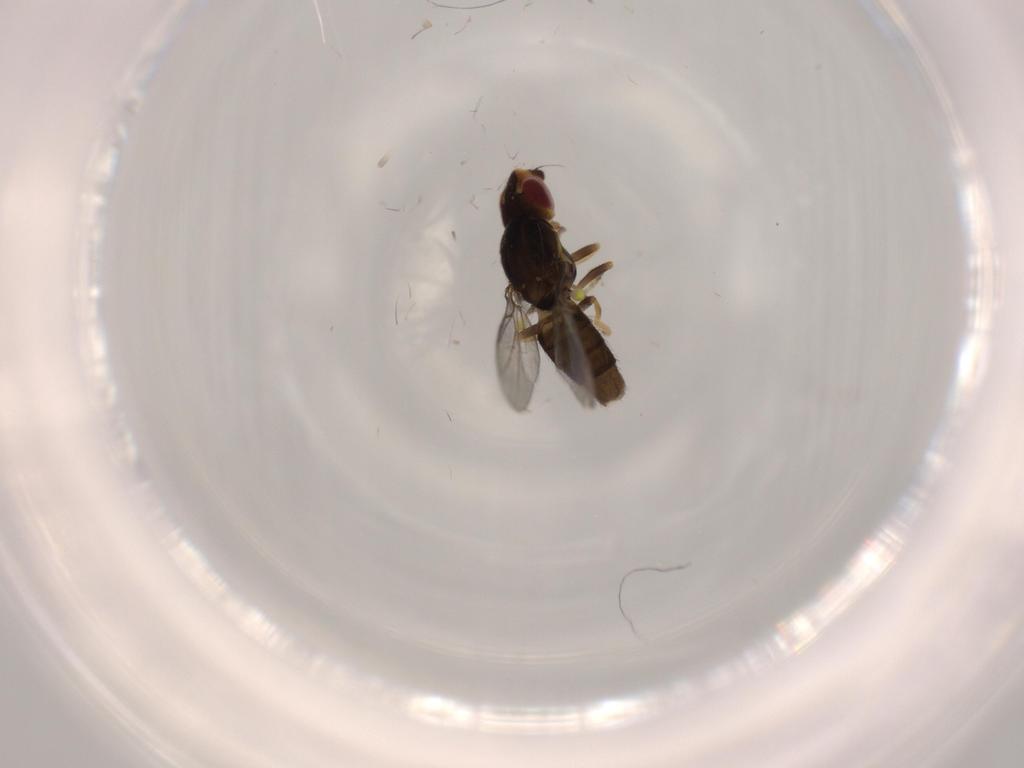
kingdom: Animalia
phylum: Arthropoda
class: Insecta
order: Diptera
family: Chloropidae
